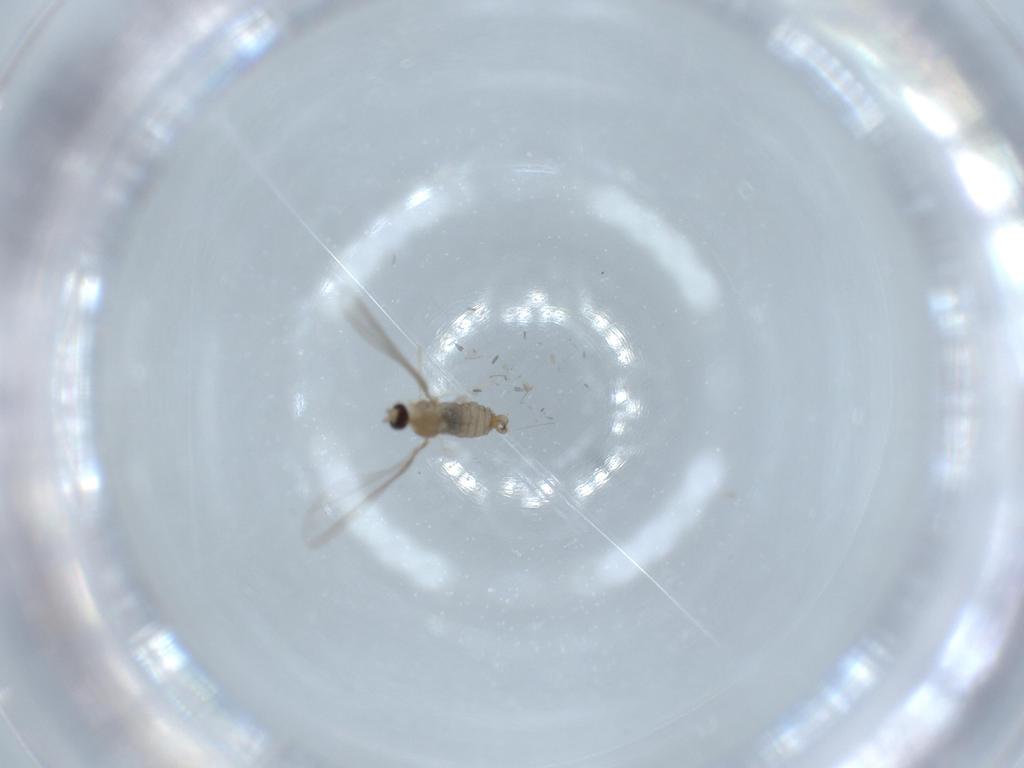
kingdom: Animalia
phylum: Arthropoda
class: Insecta
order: Diptera
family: Cecidomyiidae
